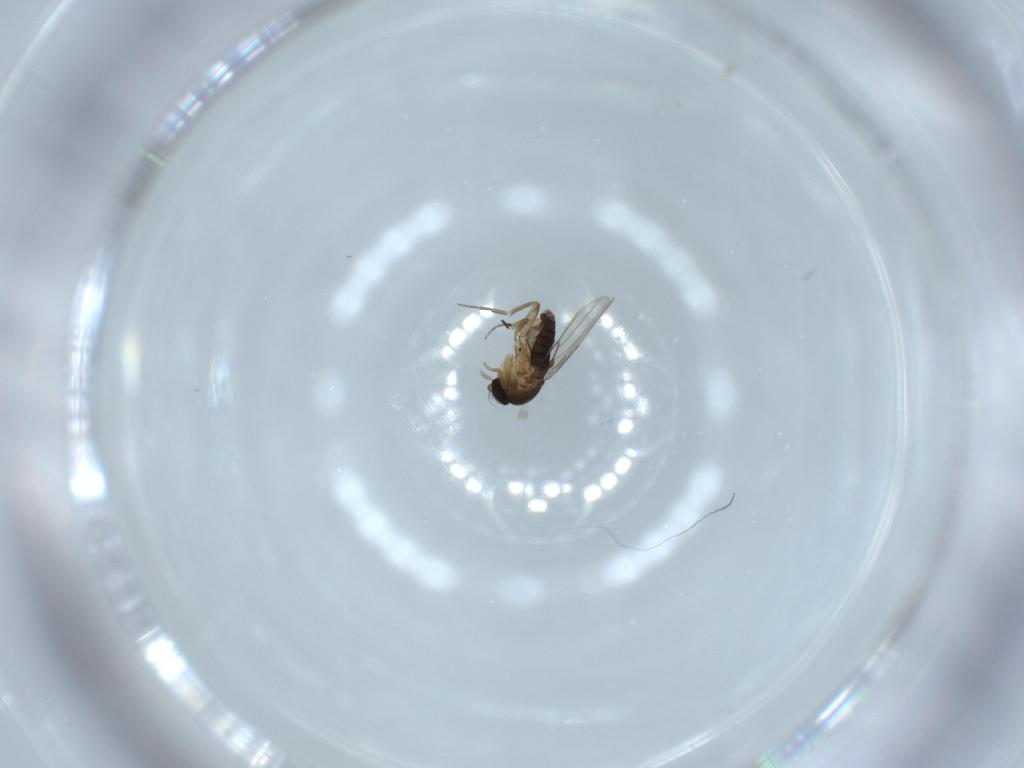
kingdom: Animalia
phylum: Arthropoda
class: Insecta
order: Diptera
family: Phoridae
